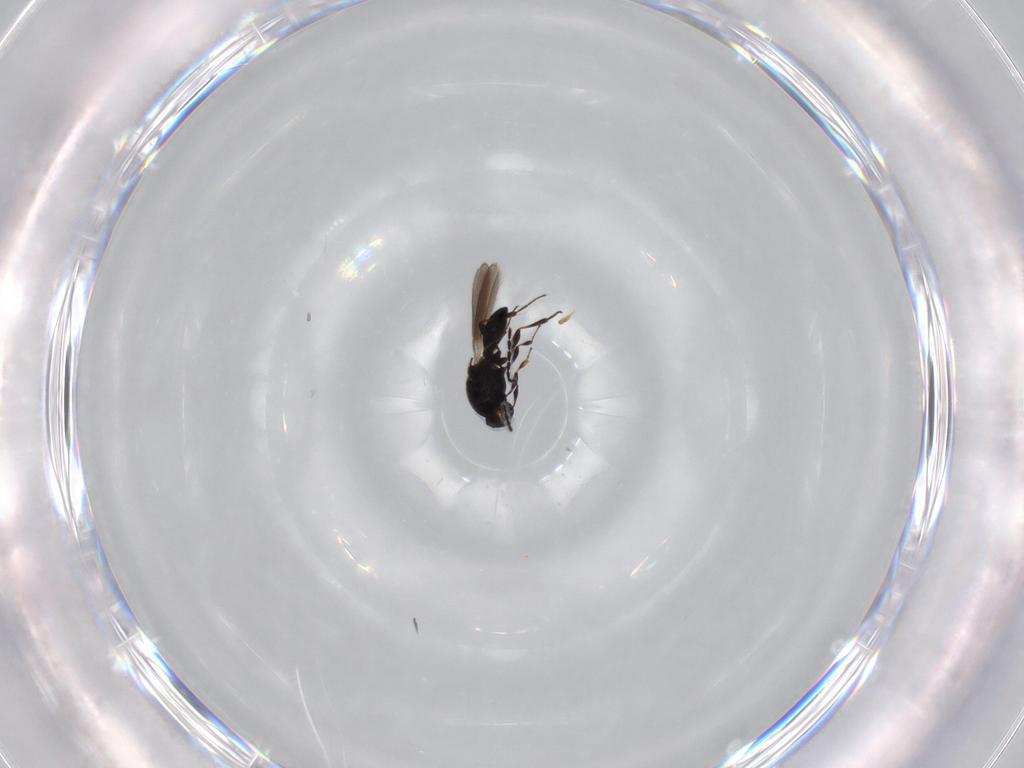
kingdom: Animalia
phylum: Arthropoda
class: Insecta
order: Hymenoptera
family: Platygastridae
